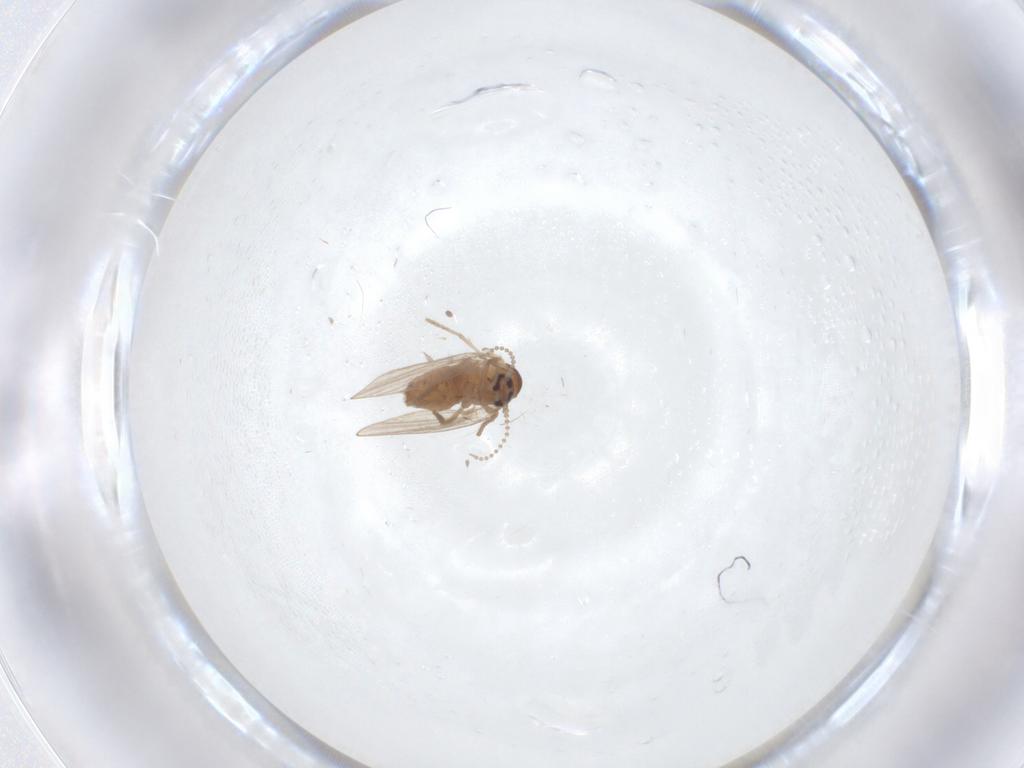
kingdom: Animalia
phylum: Arthropoda
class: Insecta
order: Diptera
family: Psychodidae
